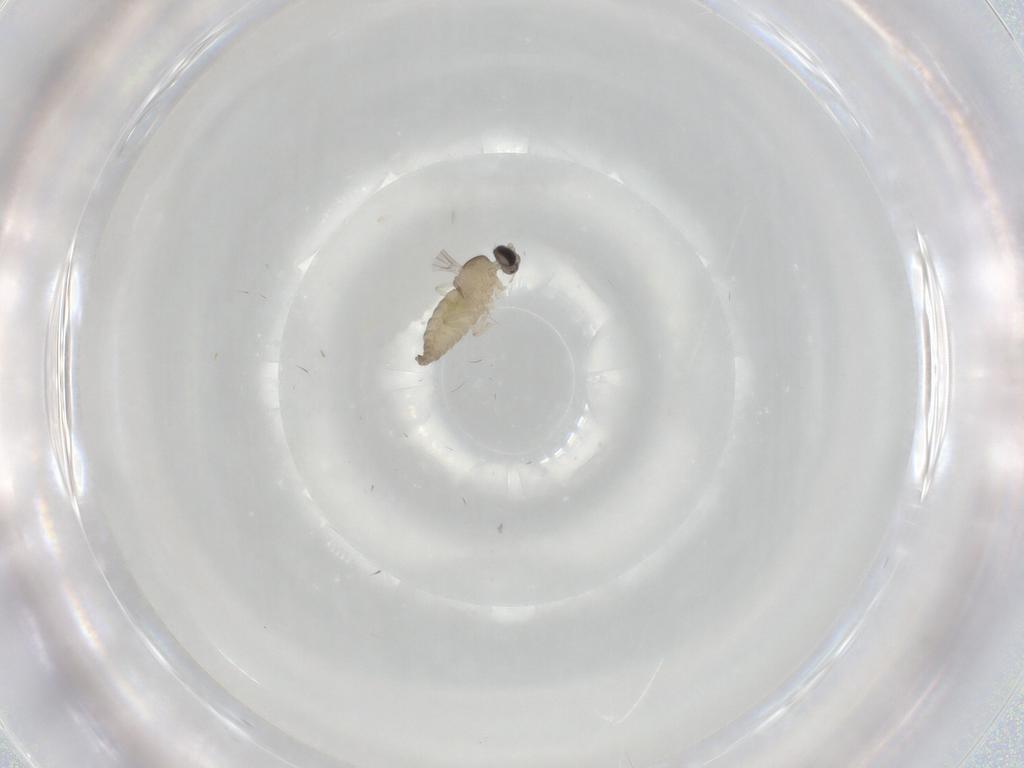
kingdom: Animalia
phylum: Arthropoda
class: Insecta
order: Diptera
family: Cecidomyiidae
